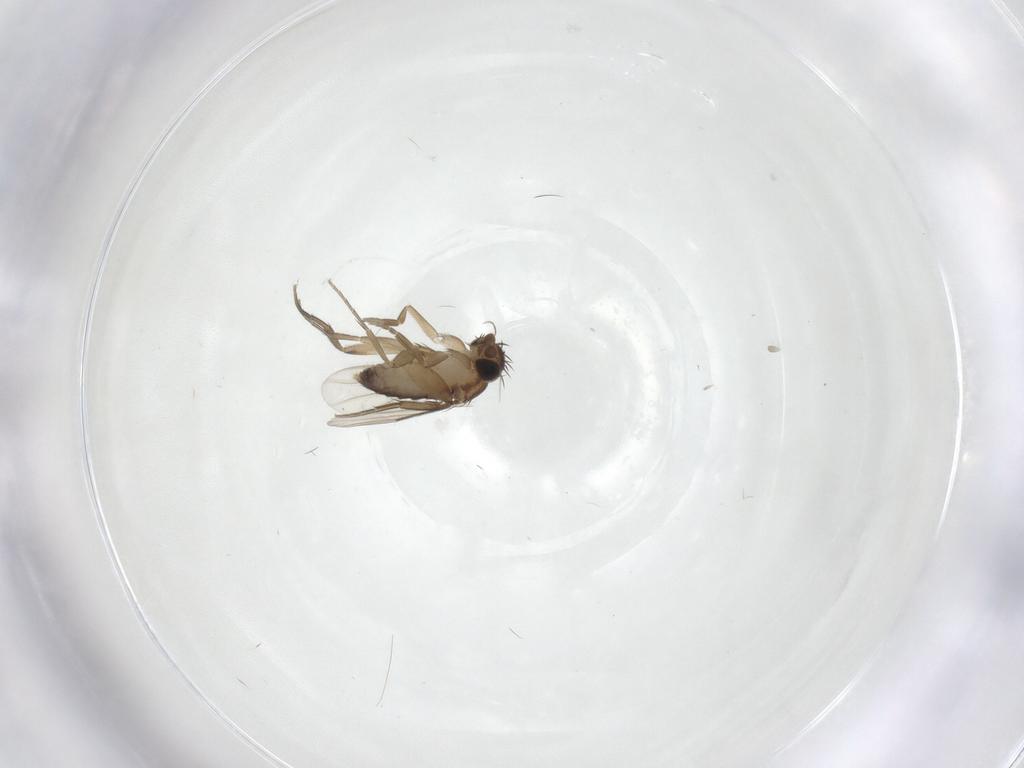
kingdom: Animalia
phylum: Arthropoda
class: Insecta
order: Diptera
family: Phoridae
